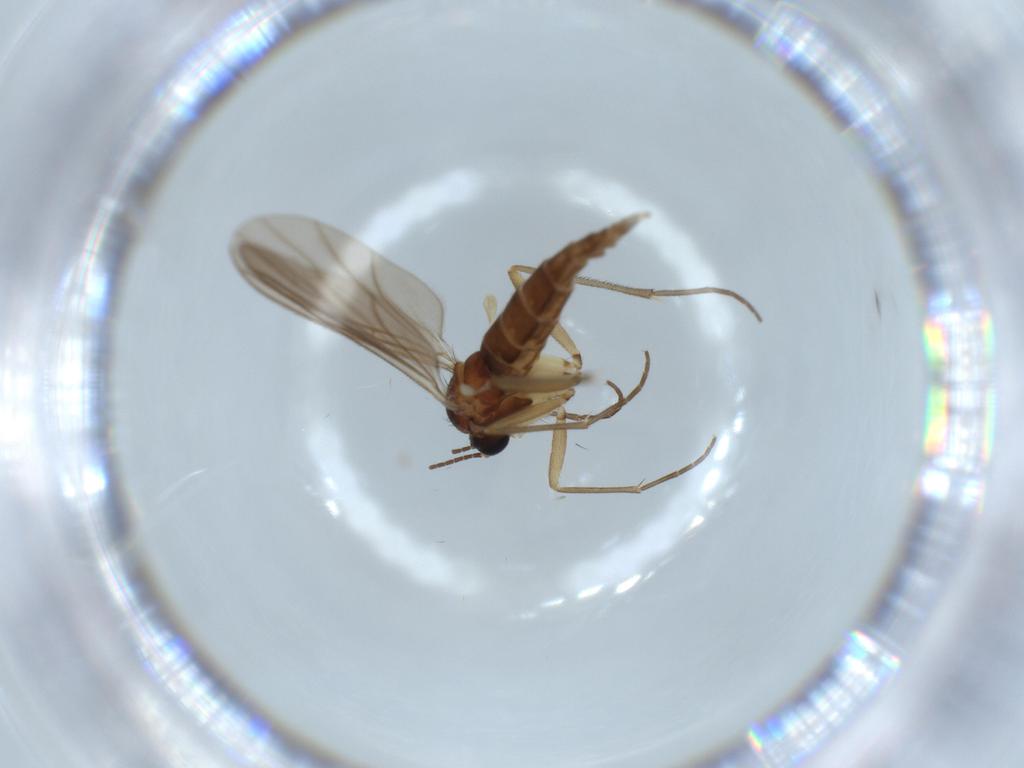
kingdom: Animalia
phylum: Arthropoda
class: Insecta
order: Diptera
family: Sciaridae
